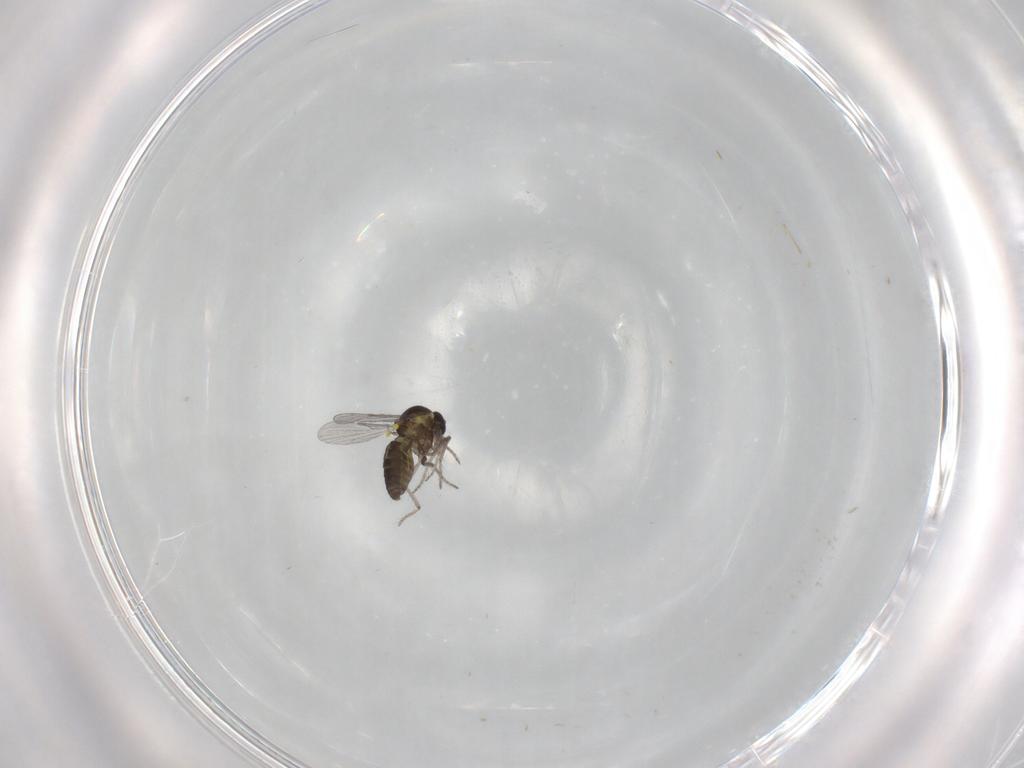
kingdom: Animalia
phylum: Arthropoda
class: Insecta
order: Diptera
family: Ceratopogonidae
